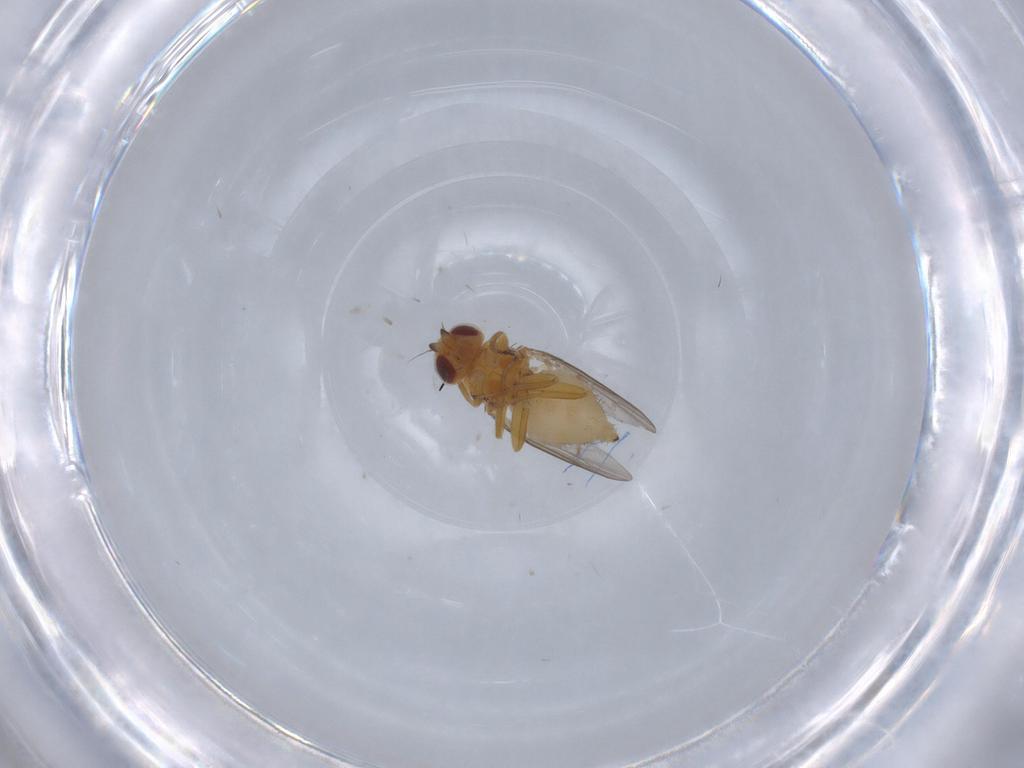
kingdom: Animalia
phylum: Arthropoda
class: Insecta
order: Diptera
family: Chloropidae
